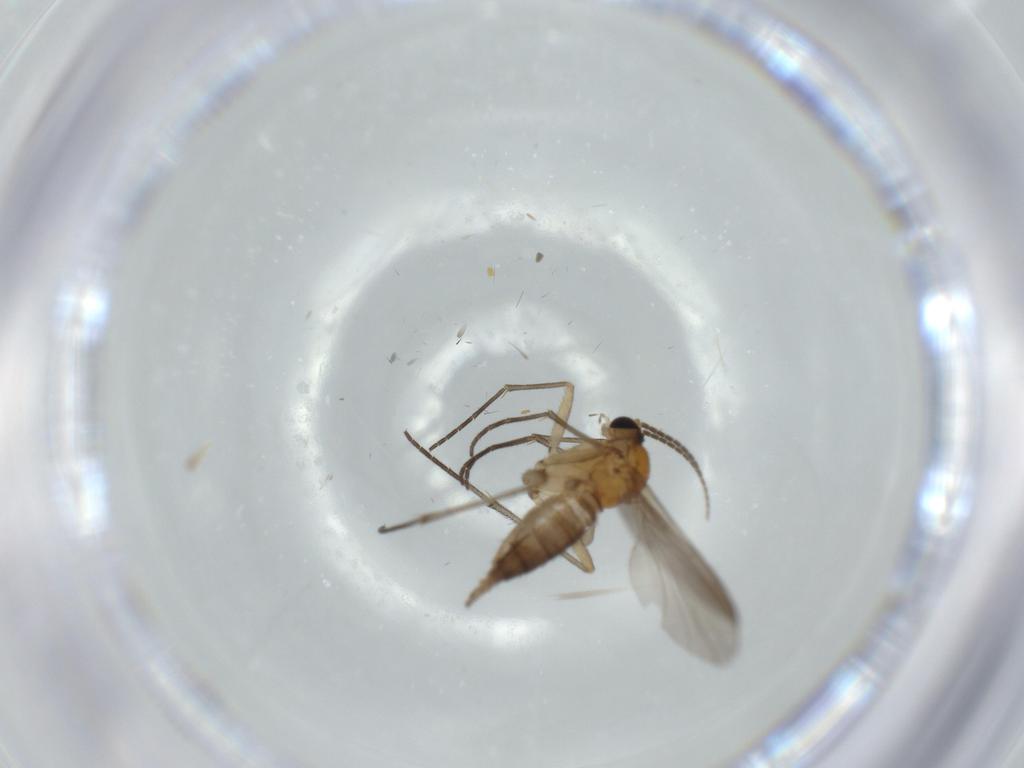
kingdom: Animalia
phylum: Arthropoda
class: Insecta
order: Diptera
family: Sciaridae
